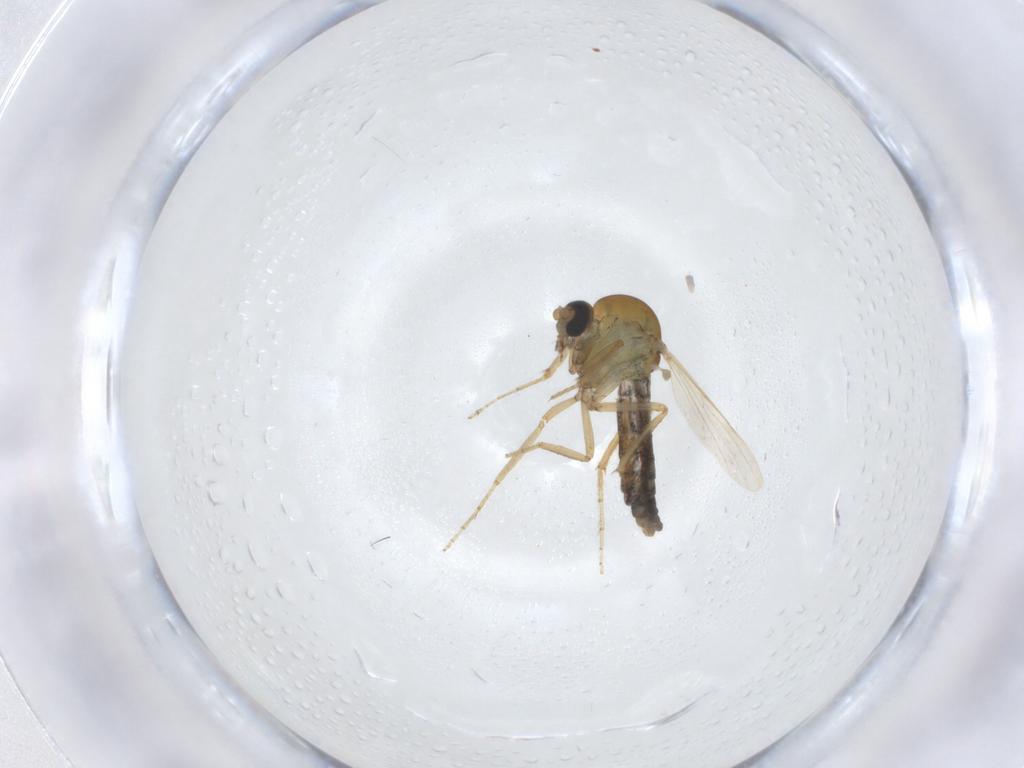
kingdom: Animalia
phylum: Arthropoda
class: Insecta
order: Diptera
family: Ceratopogonidae
